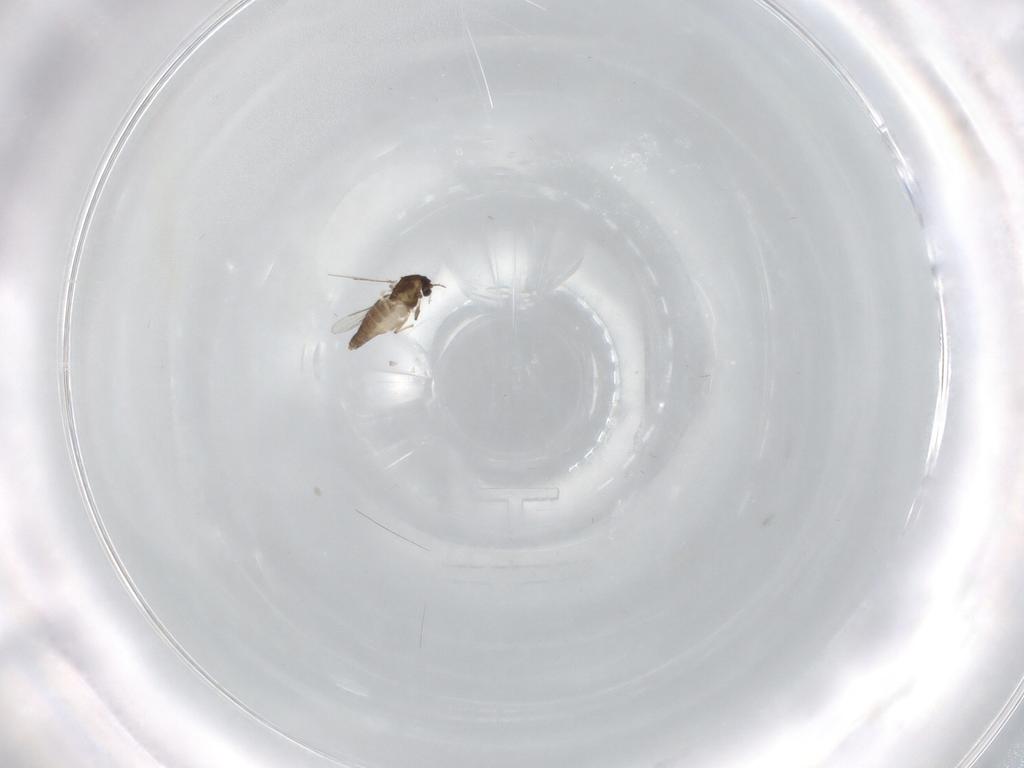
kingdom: Animalia
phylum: Arthropoda
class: Insecta
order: Diptera
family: Chironomidae
